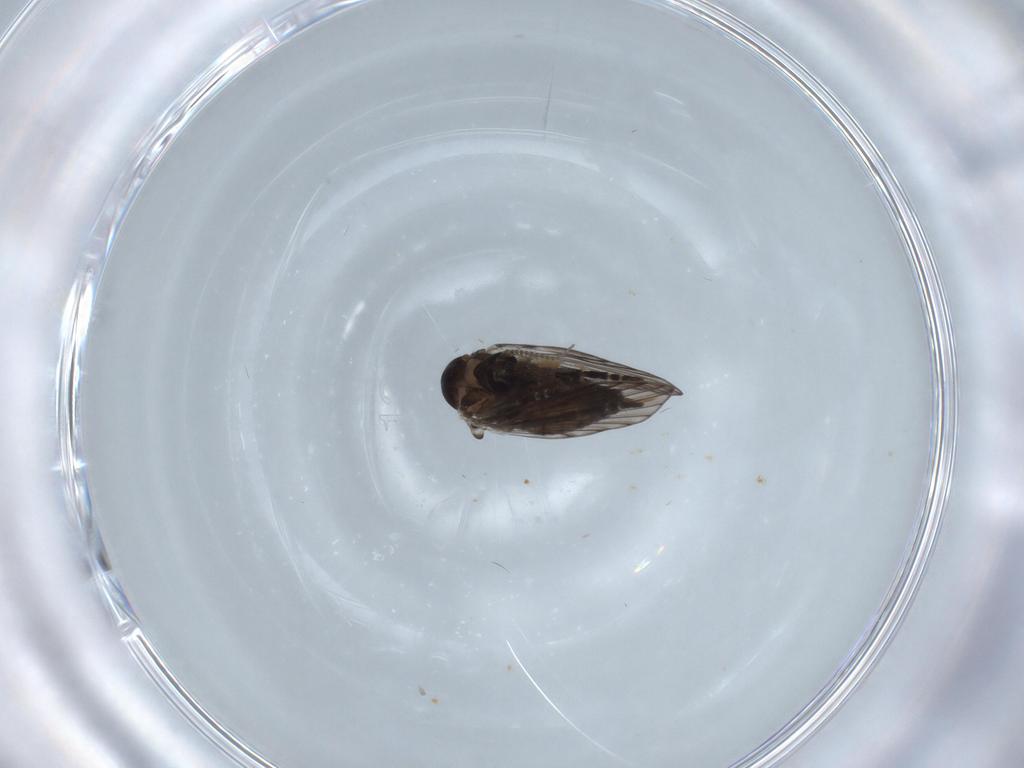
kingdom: Animalia
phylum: Arthropoda
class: Insecta
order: Diptera
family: Psychodidae
